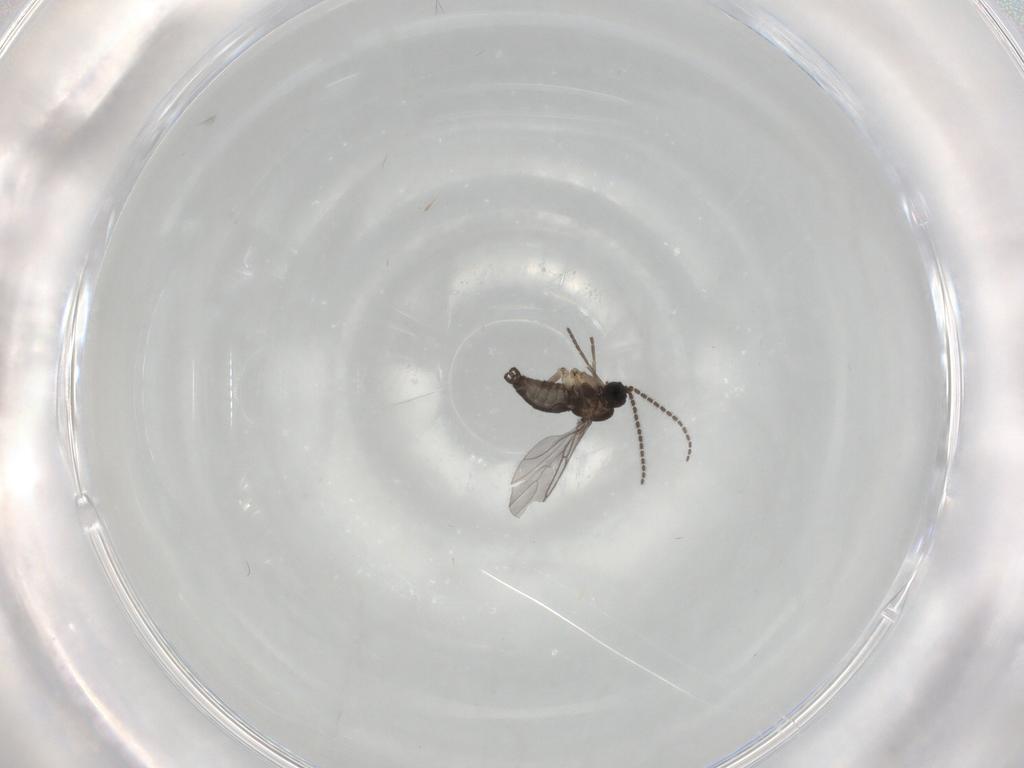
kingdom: Animalia
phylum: Arthropoda
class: Insecta
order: Diptera
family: Sciaridae
